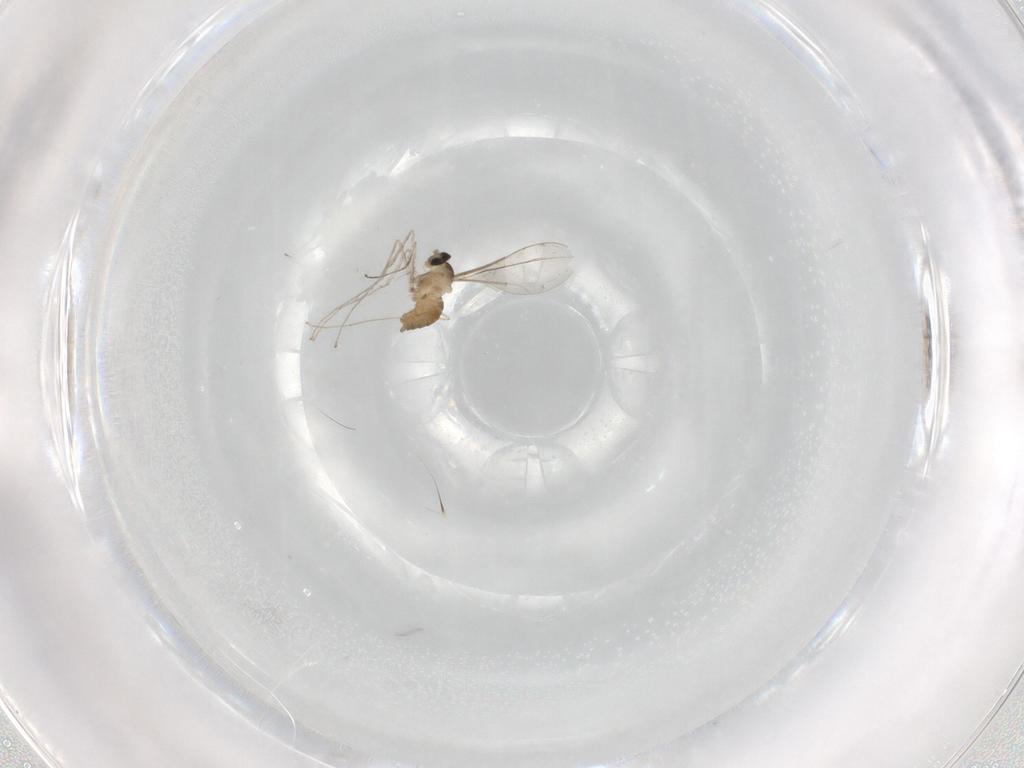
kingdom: Animalia
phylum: Arthropoda
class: Insecta
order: Diptera
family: Cecidomyiidae
